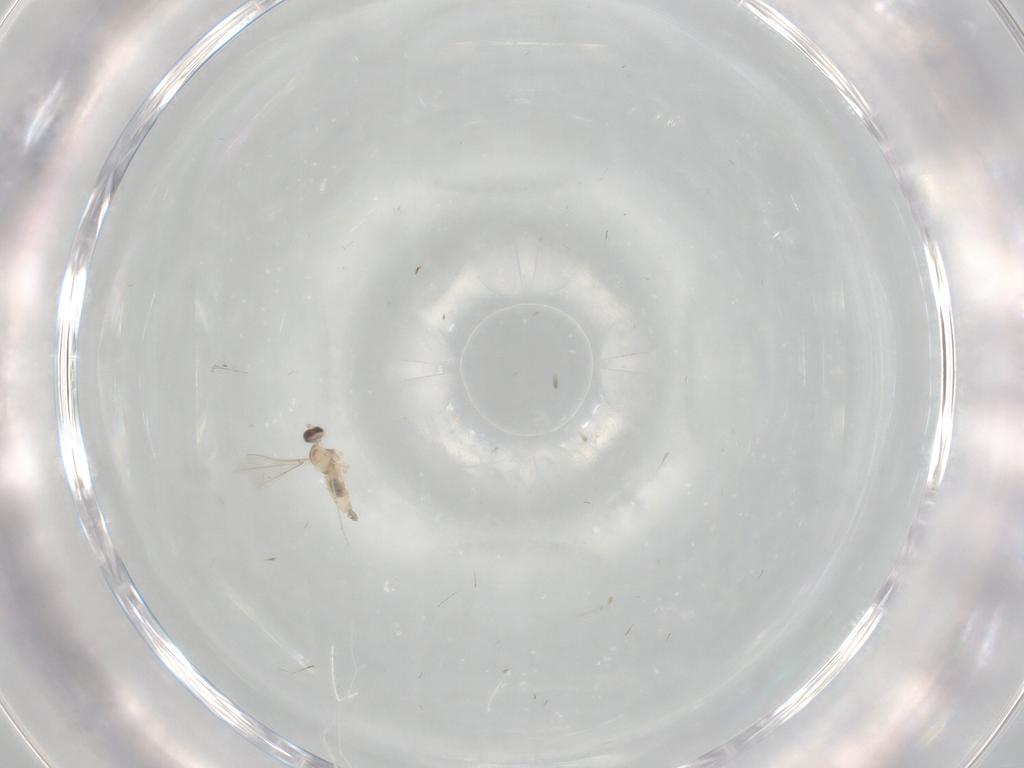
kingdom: Animalia
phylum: Arthropoda
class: Insecta
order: Diptera
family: Cecidomyiidae
